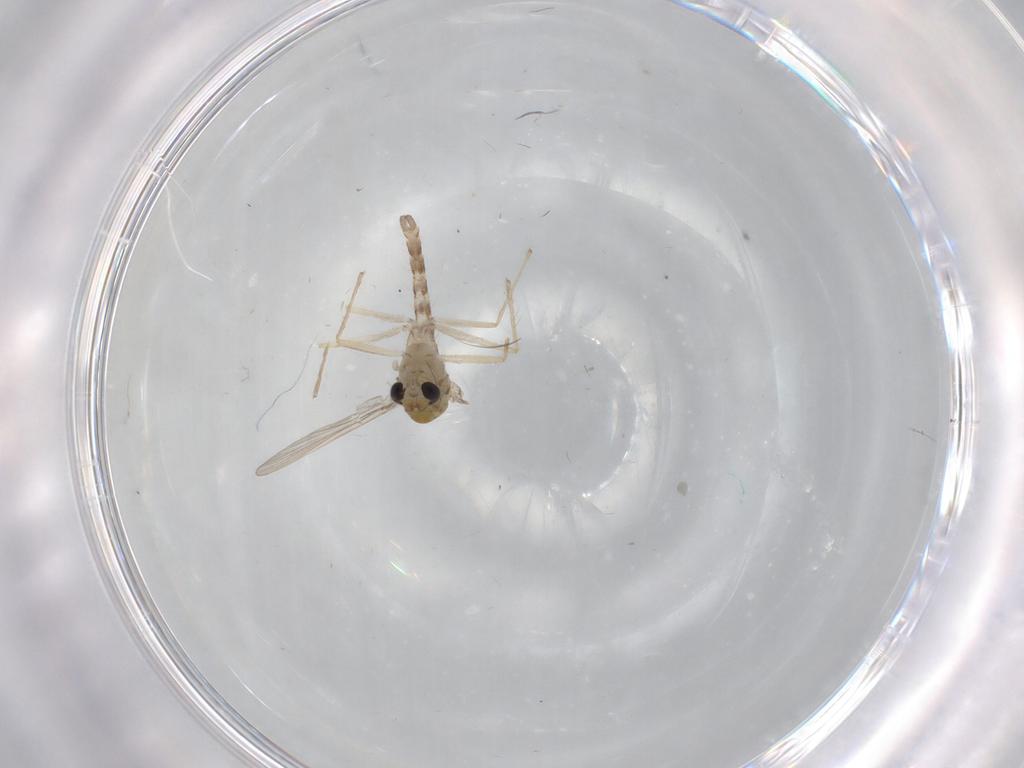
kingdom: Animalia
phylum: Arthropoda
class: Insecta
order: Diptera
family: Chironomidae
